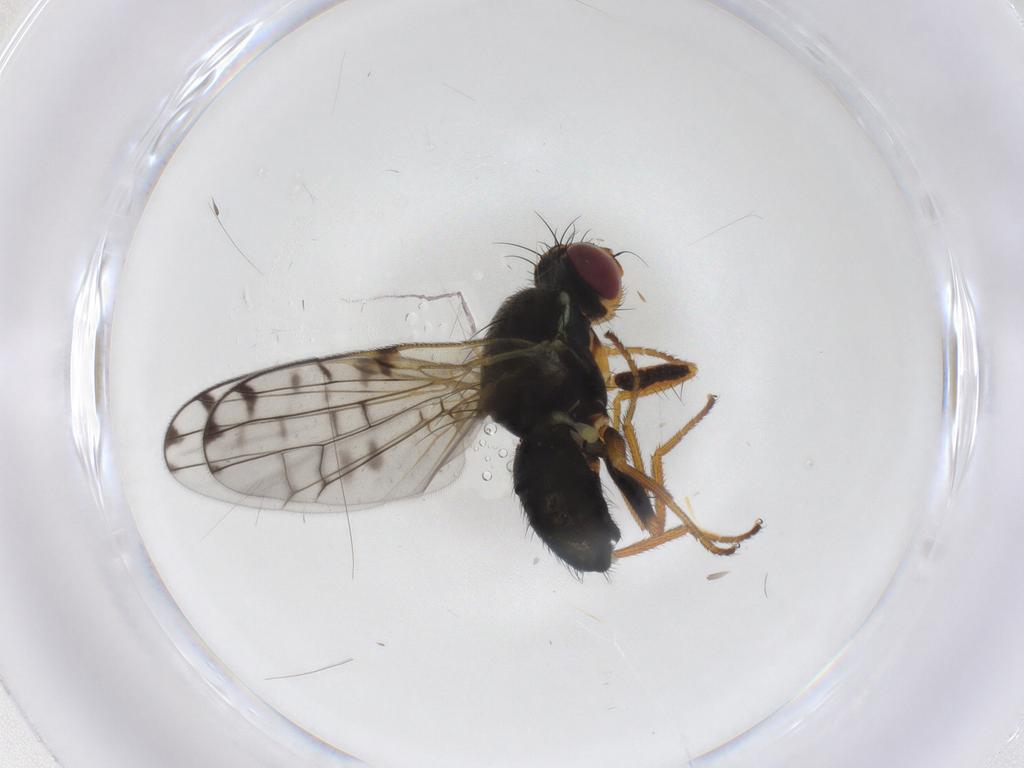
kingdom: Animalia
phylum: Arthropoda
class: Insecta
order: Diptera
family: Tephritidae
